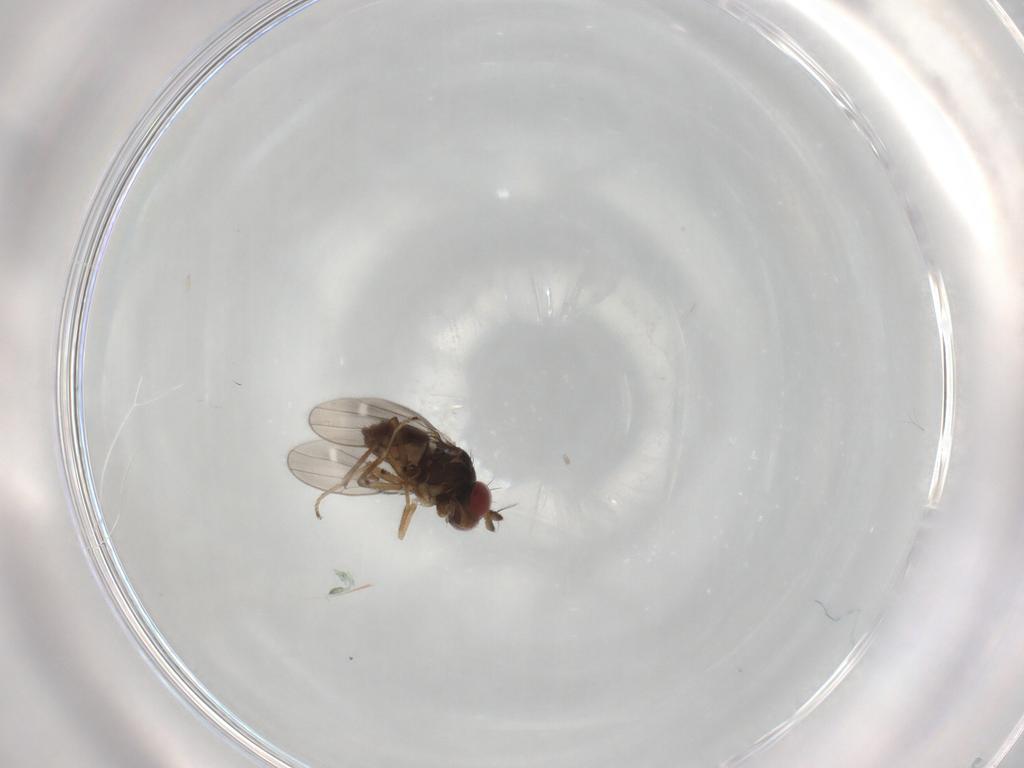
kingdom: Animalia
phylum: Arthropoda
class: Insecta
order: Diptera
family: Ephydridae
